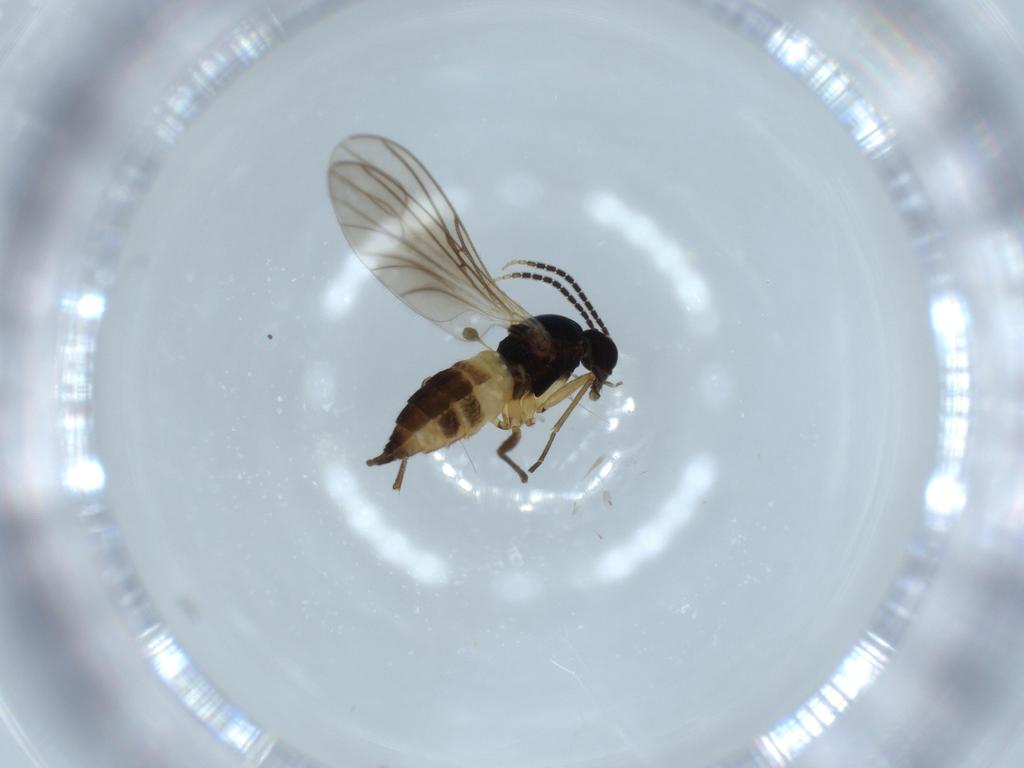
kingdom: Animalia
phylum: Arthropoda
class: Insecta
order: Diptera
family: Sciaridae
